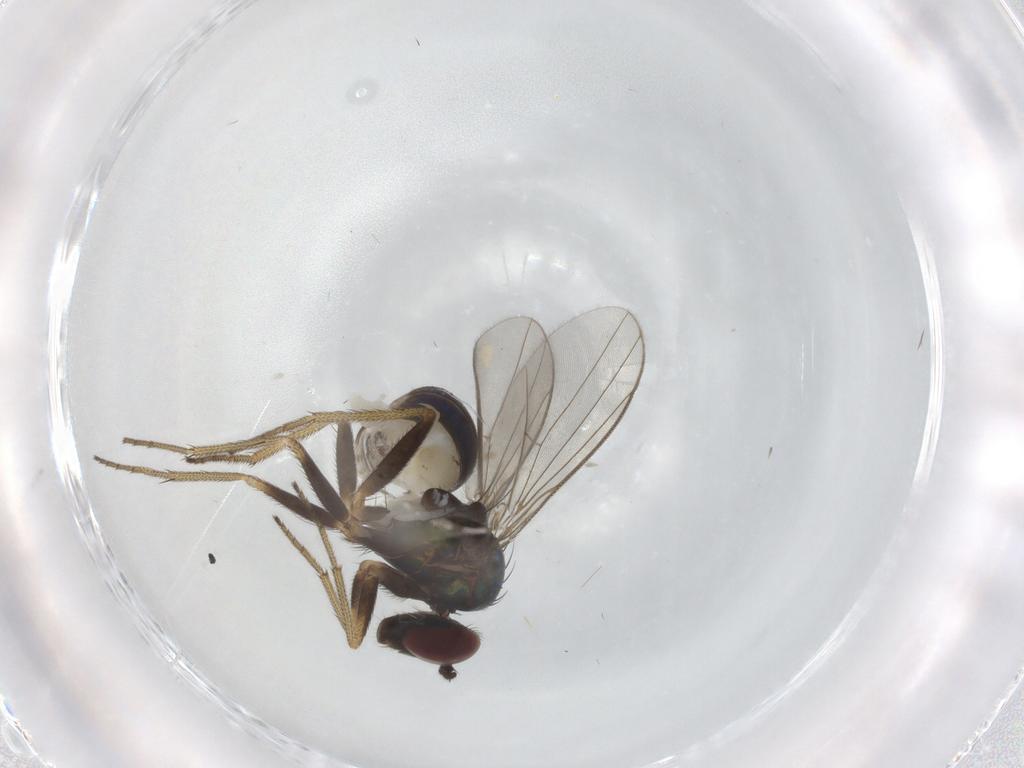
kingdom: Animalia
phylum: Arthropoda
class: Insecta
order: Diptera
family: Dolichopodidae
